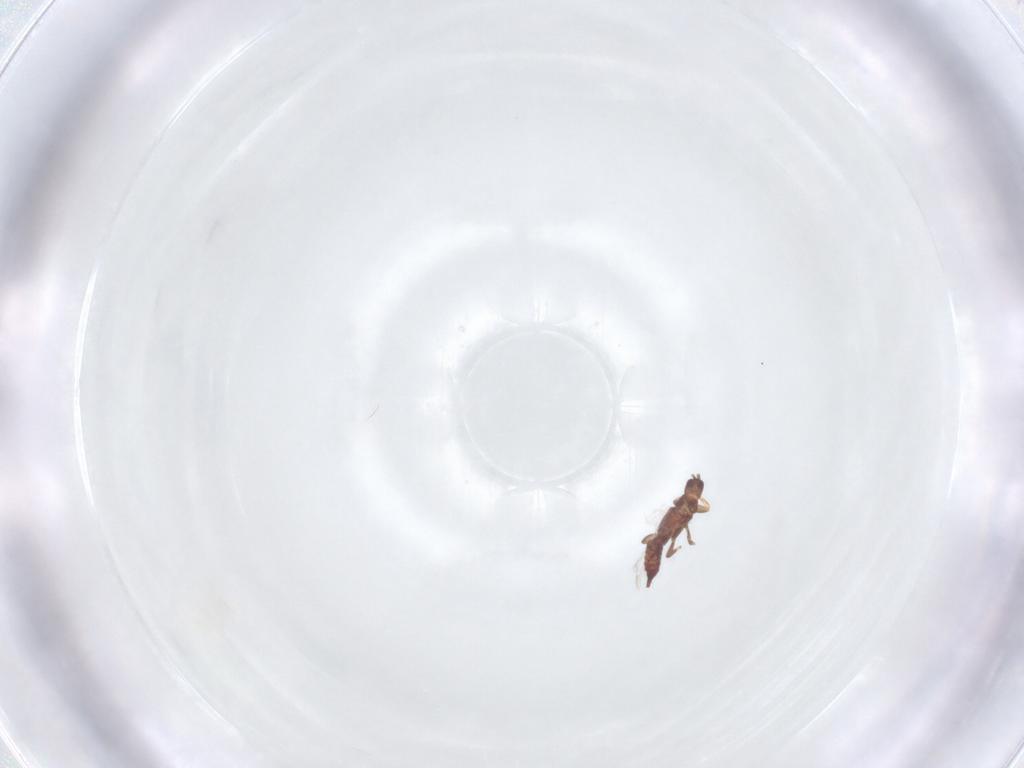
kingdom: Animalia
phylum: Arthropoda
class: Insecta
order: Thysanoptera
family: Phlaeothripidae
